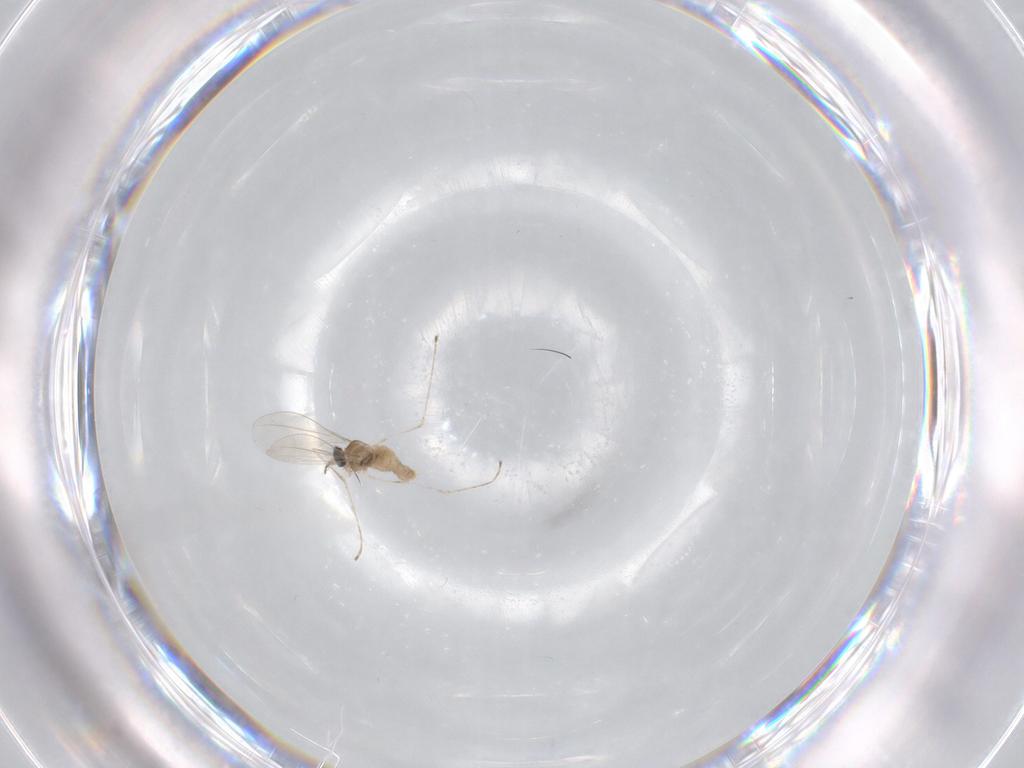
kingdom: Animalia
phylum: Arthropoda
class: Insecta
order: Diptera
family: Cecidomyiidae
